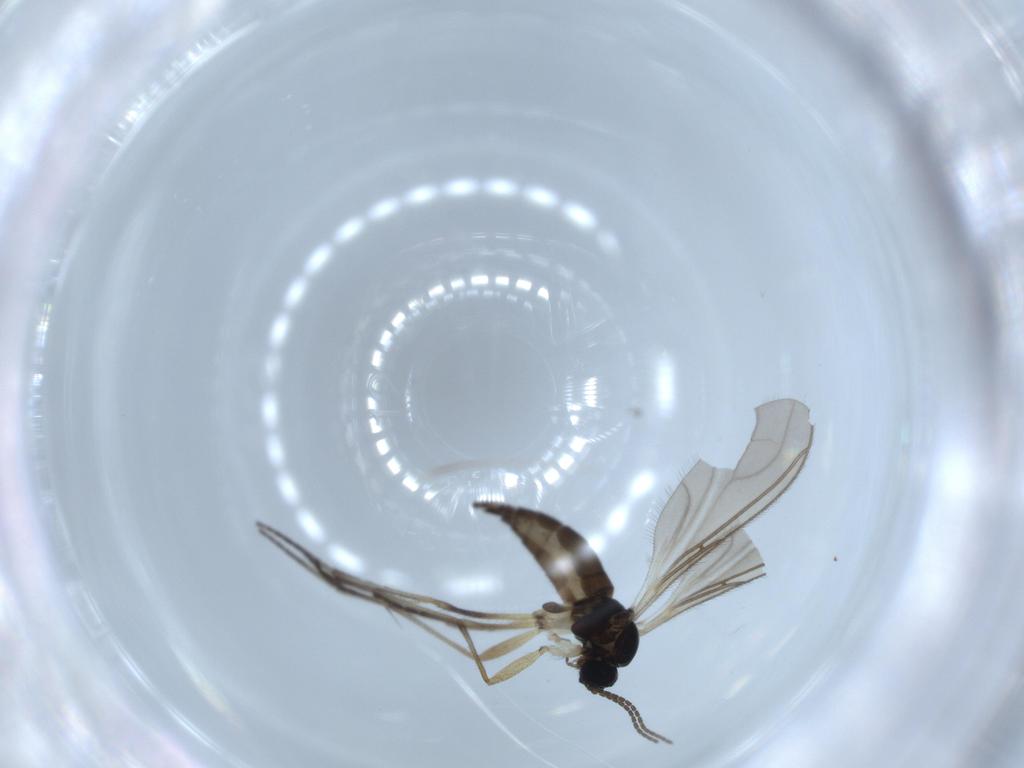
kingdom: Animalia
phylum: Arthropoda
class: Insecta
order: Diptera
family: Sciaridae
